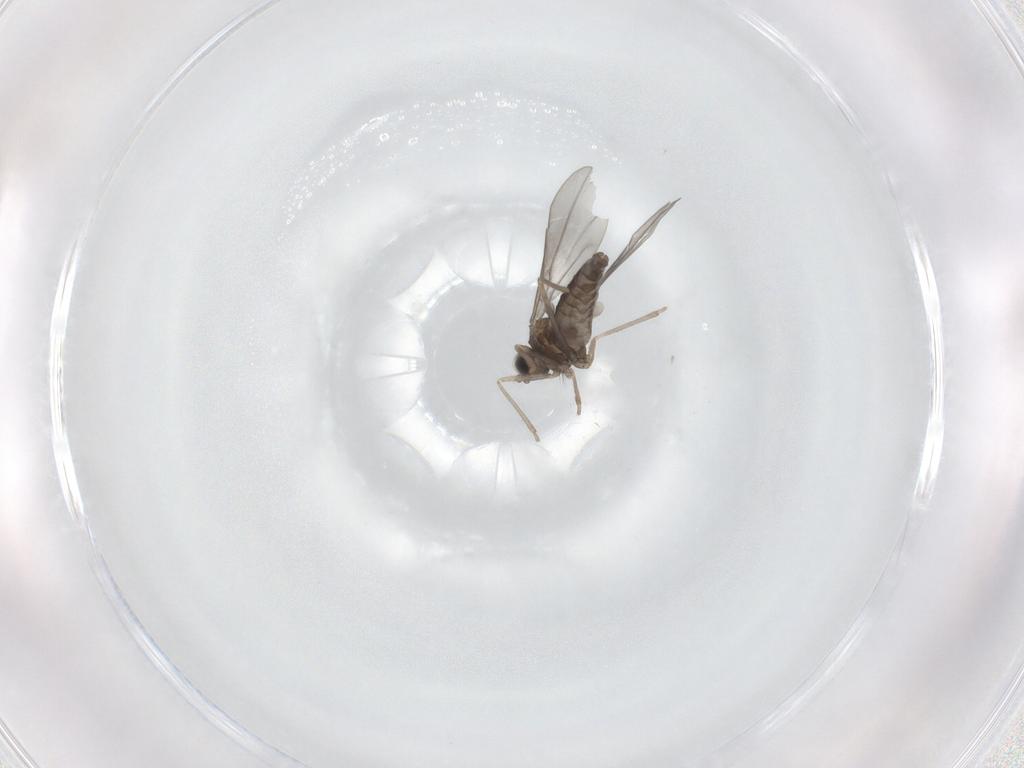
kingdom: Animalia
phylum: Arthropoda
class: Insecta
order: Diptera
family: Cecidomyiidae
